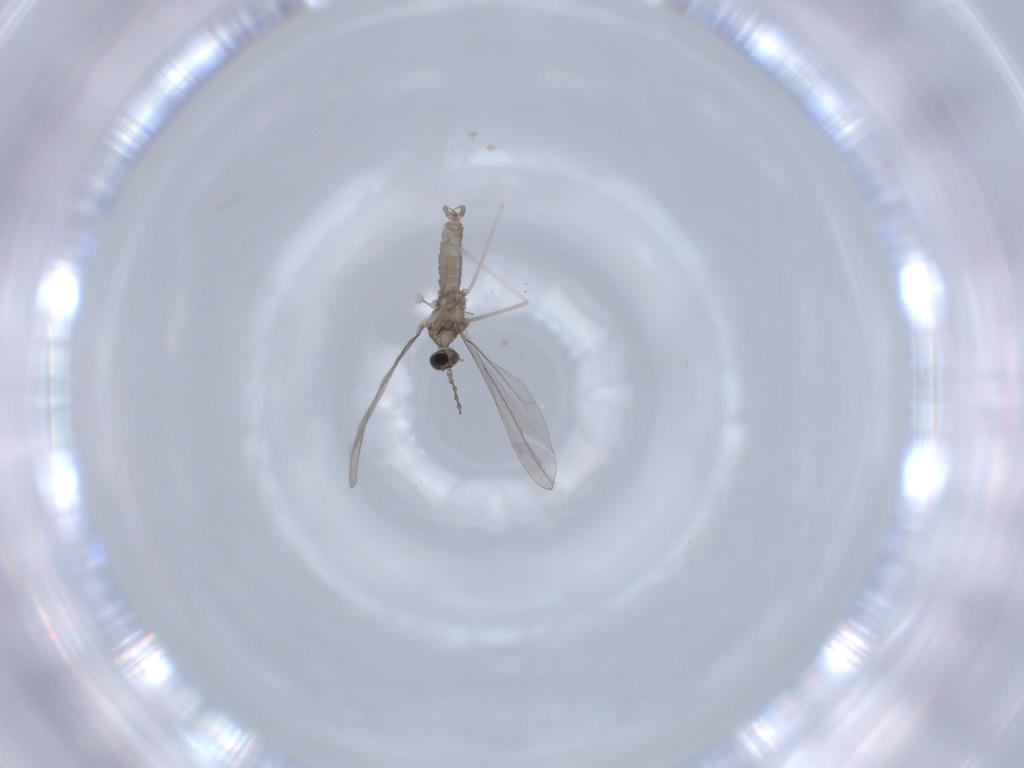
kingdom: Animalia
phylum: Arthropoda
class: Insecta
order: Diptera
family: Cecidomyiidae
